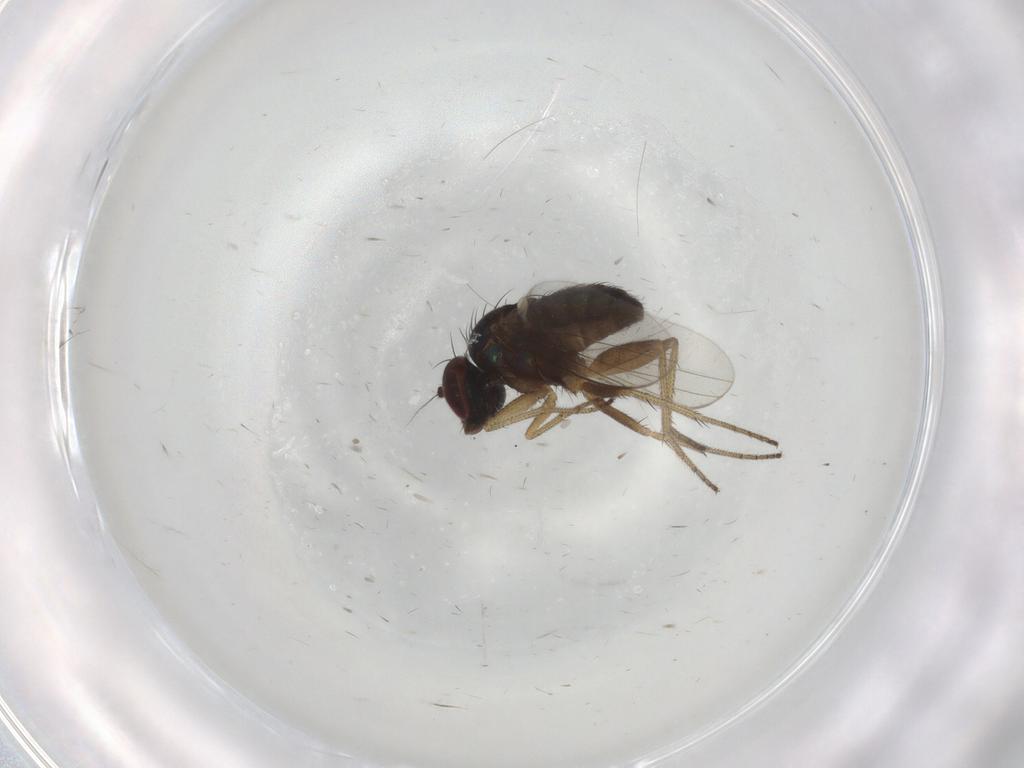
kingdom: Animalia
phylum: Arthropoda
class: Insecta
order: Diptera
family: Dolichopodidae
